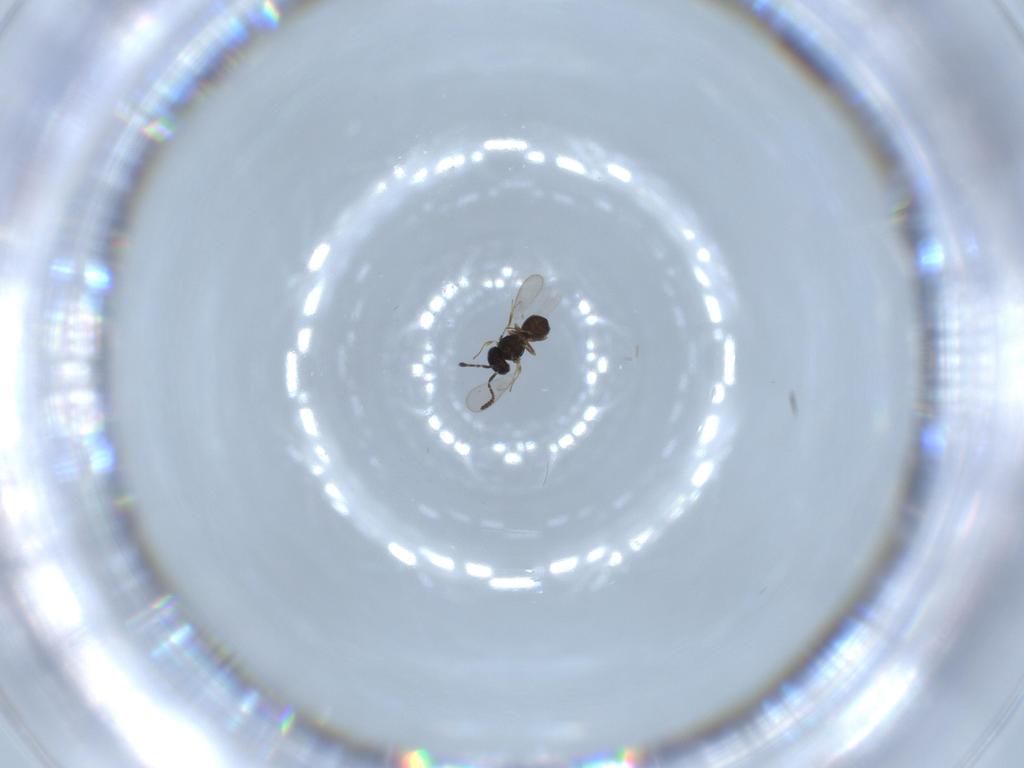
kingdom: Animalia
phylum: Arthropoda
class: Insecta
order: Hymenoptera
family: Scelionidae
